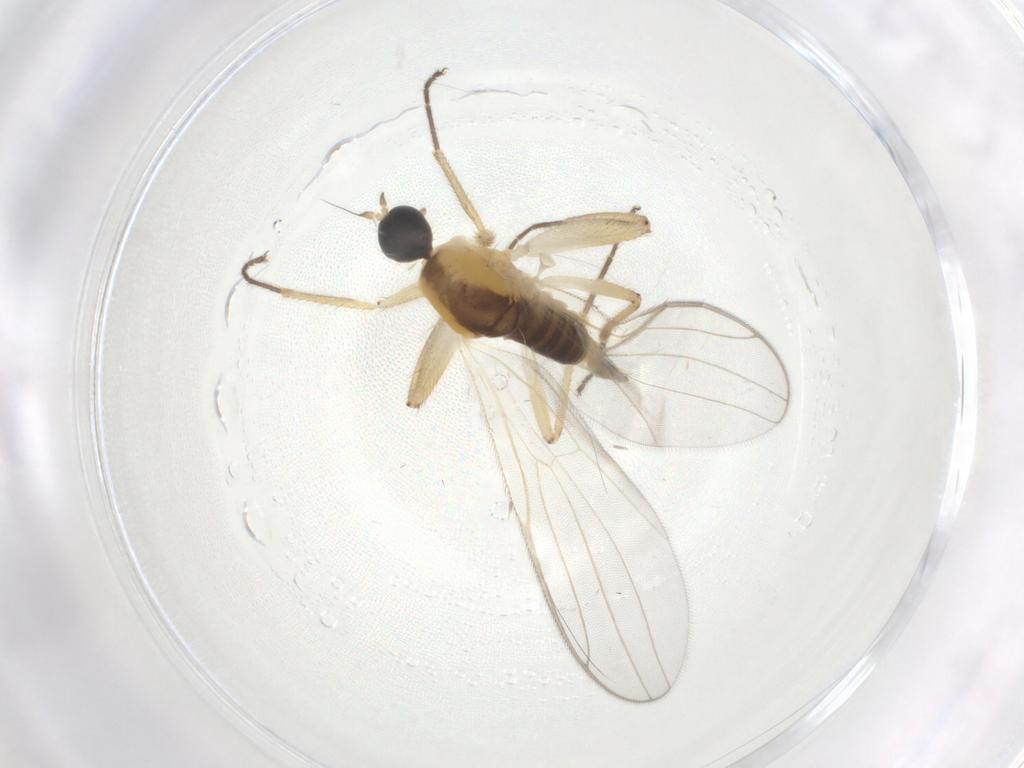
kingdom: Animalia
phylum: Arthropoda
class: Insecta
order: Diptera
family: Hybotidae
